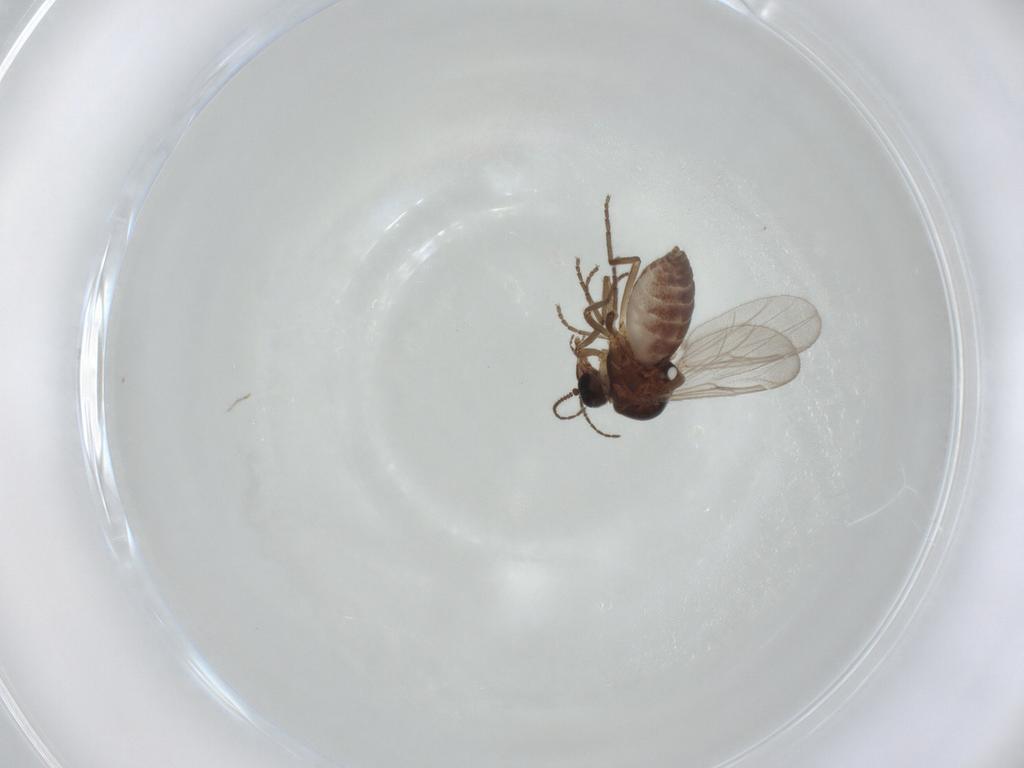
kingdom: Animalia
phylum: Arthropoda
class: Insecta
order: Diptera
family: Ceratopogonidae
